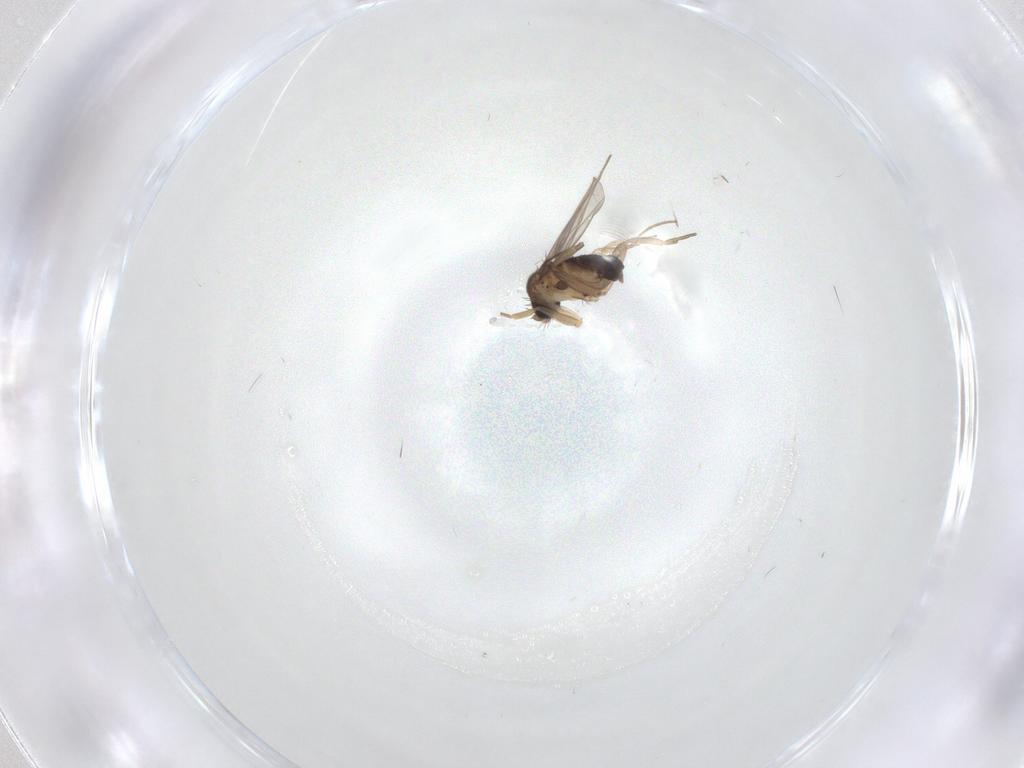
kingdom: Animalia
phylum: Arthropoda
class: Insecta
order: Diptera
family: Phoridae
